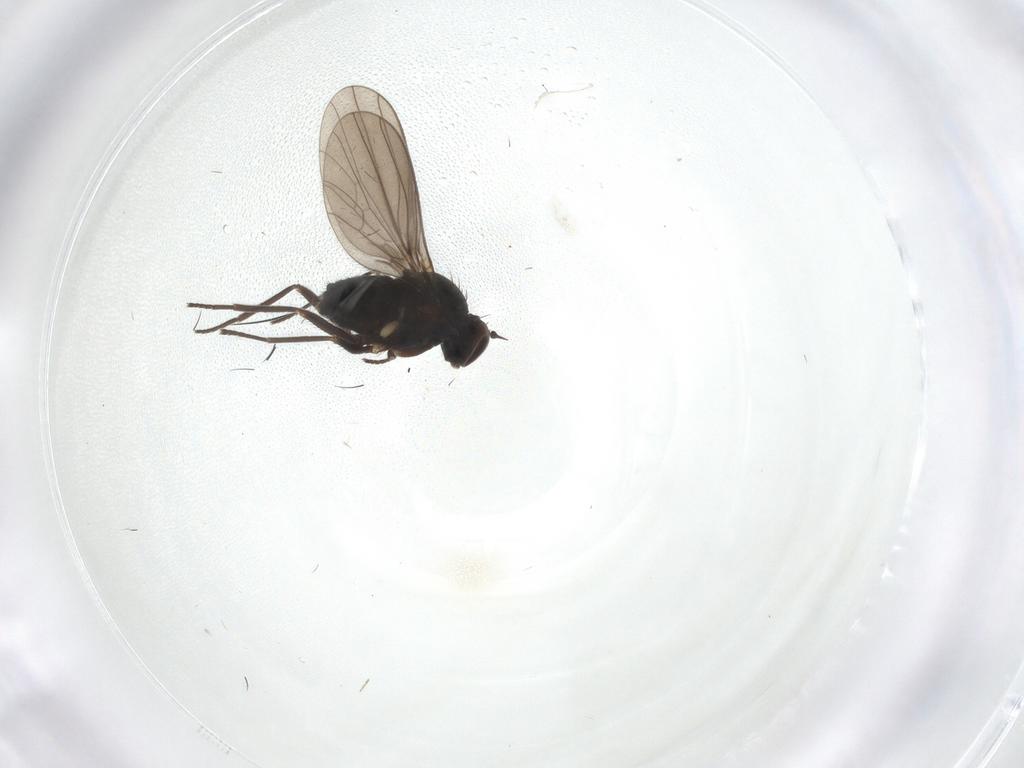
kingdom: Animalia
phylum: Arthropoda
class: Insecta
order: Diptera
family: Dolichopodidae
